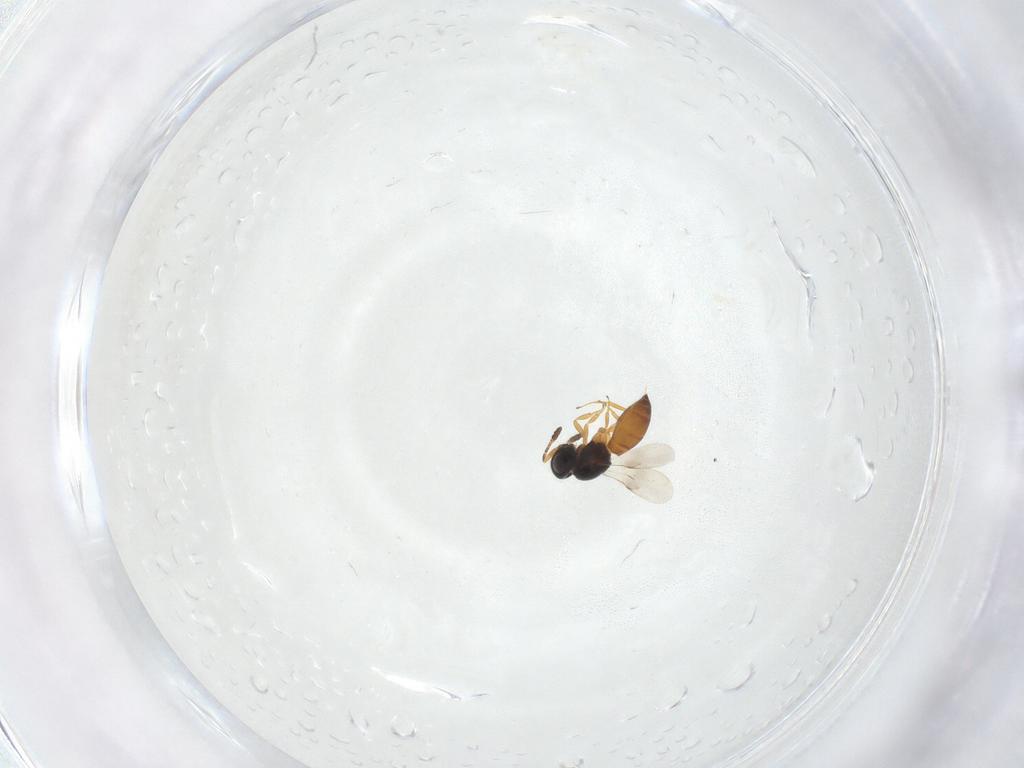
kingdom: Animalia
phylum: Arthropoda
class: Insecta
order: Hymenoptera
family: Scelionidae
